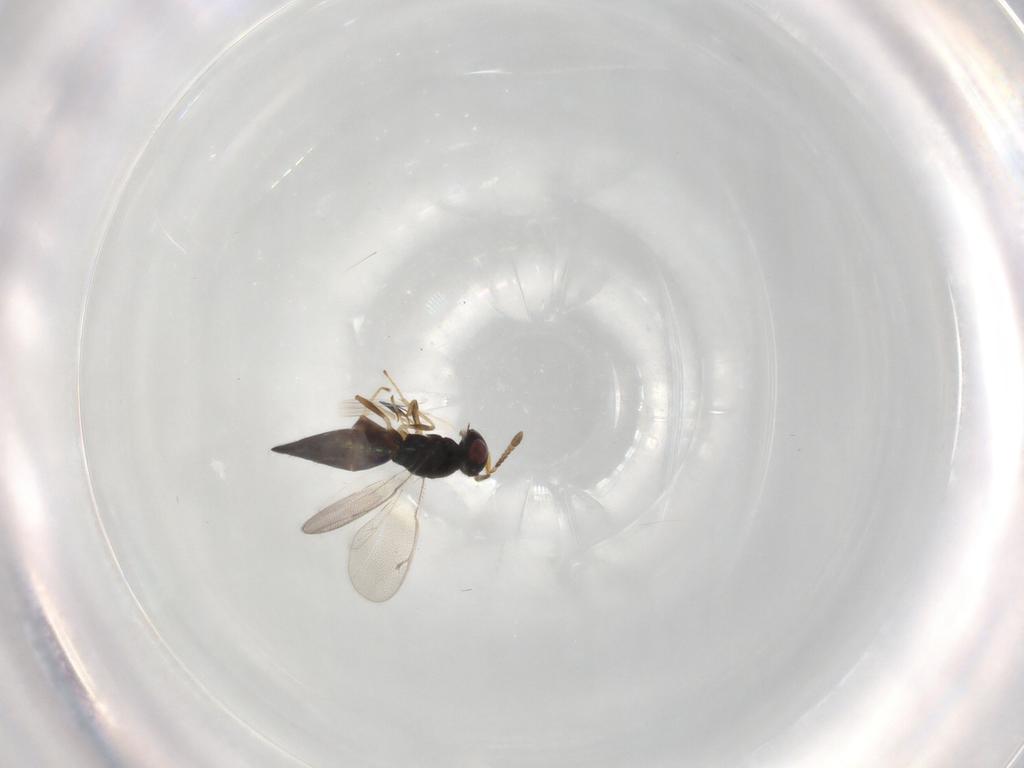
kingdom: Animalia
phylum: Arthropoda
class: Insecta
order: Hymenoptera
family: Pteromalidae
